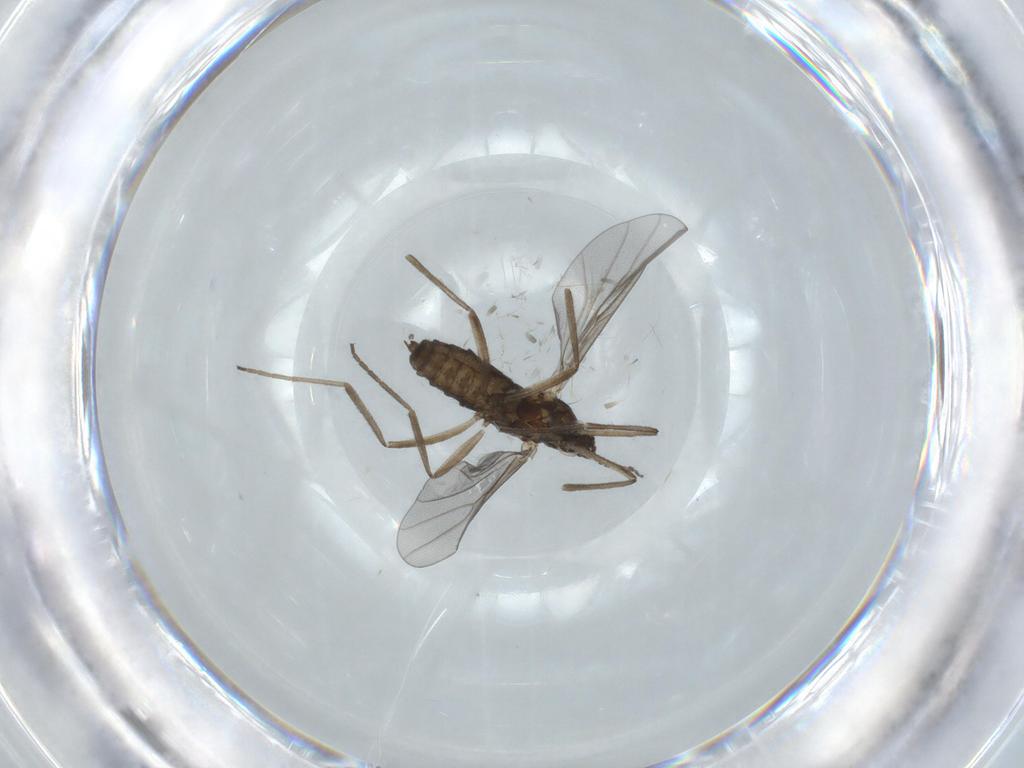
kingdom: Animalia
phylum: Arthropoda
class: Insecta
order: Diptera
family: Cecidomyiidae
